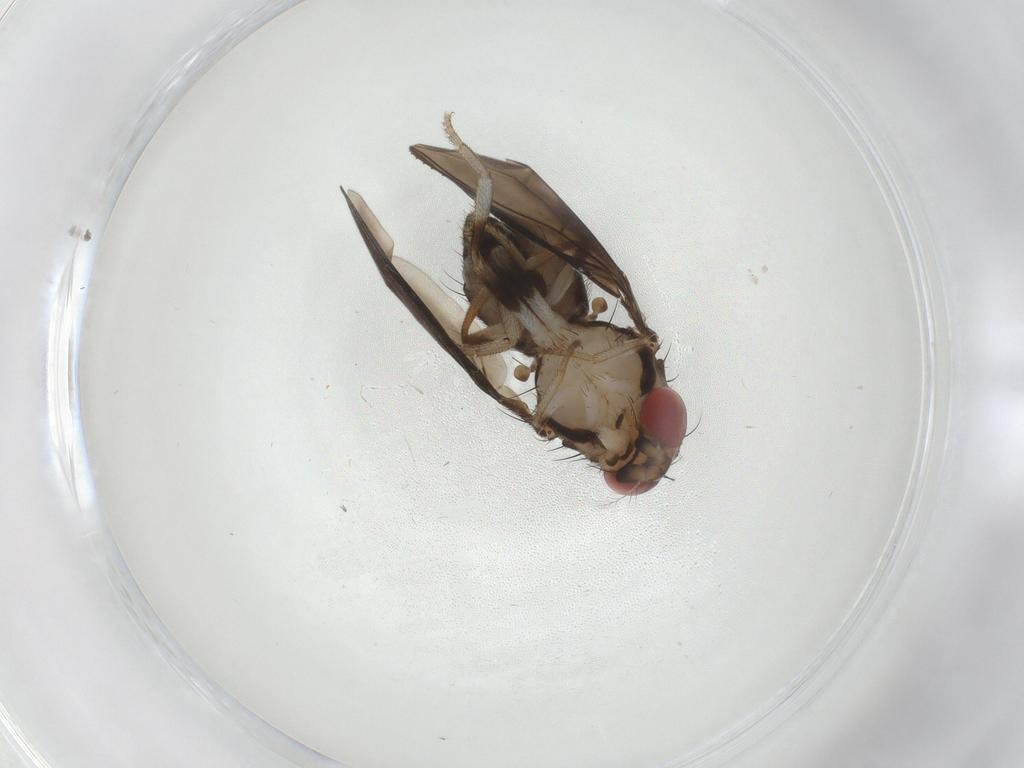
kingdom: Animalia
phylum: Arthropoda
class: Insecta
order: Diptera
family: Drosophilidae
